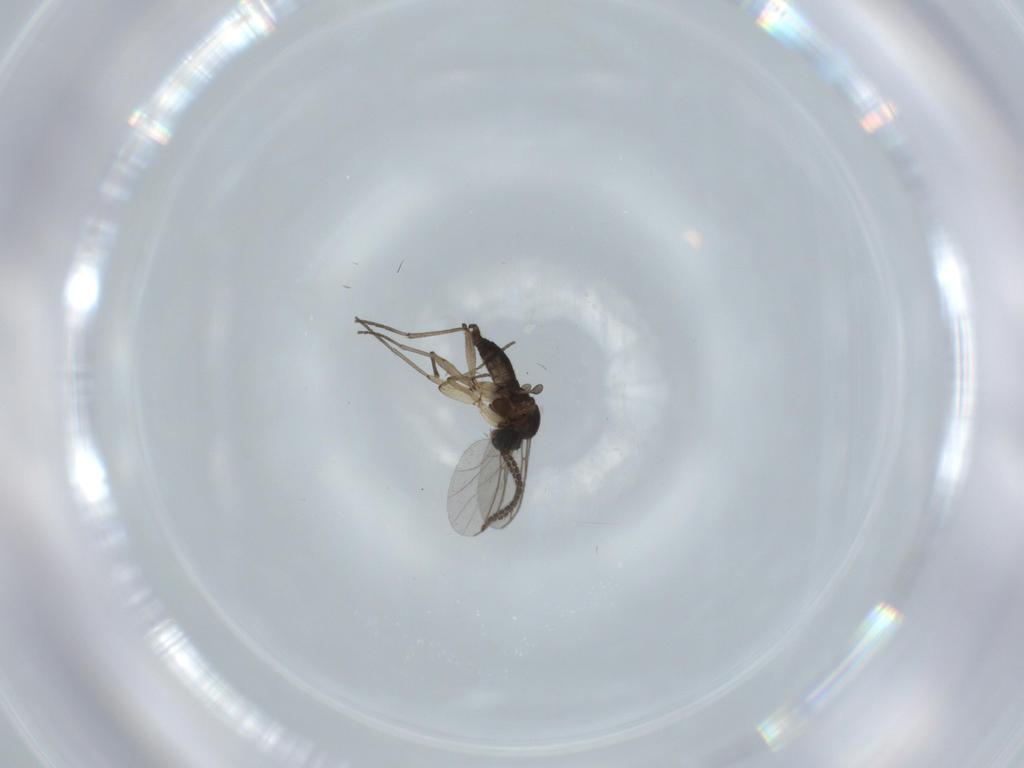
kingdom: Animalia
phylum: Arthropoda
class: Insecta
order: Diptera
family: Sciaridae
